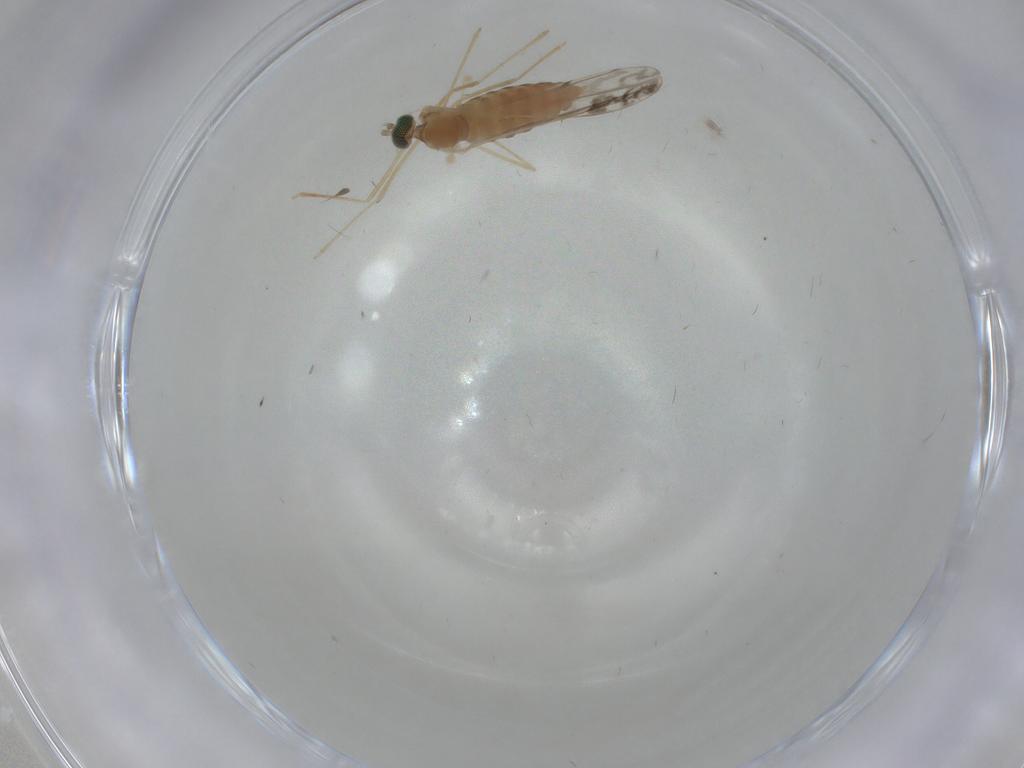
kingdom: Animalia
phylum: Arthropoda
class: Insecta
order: Diptera
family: Cecidomyiidae
